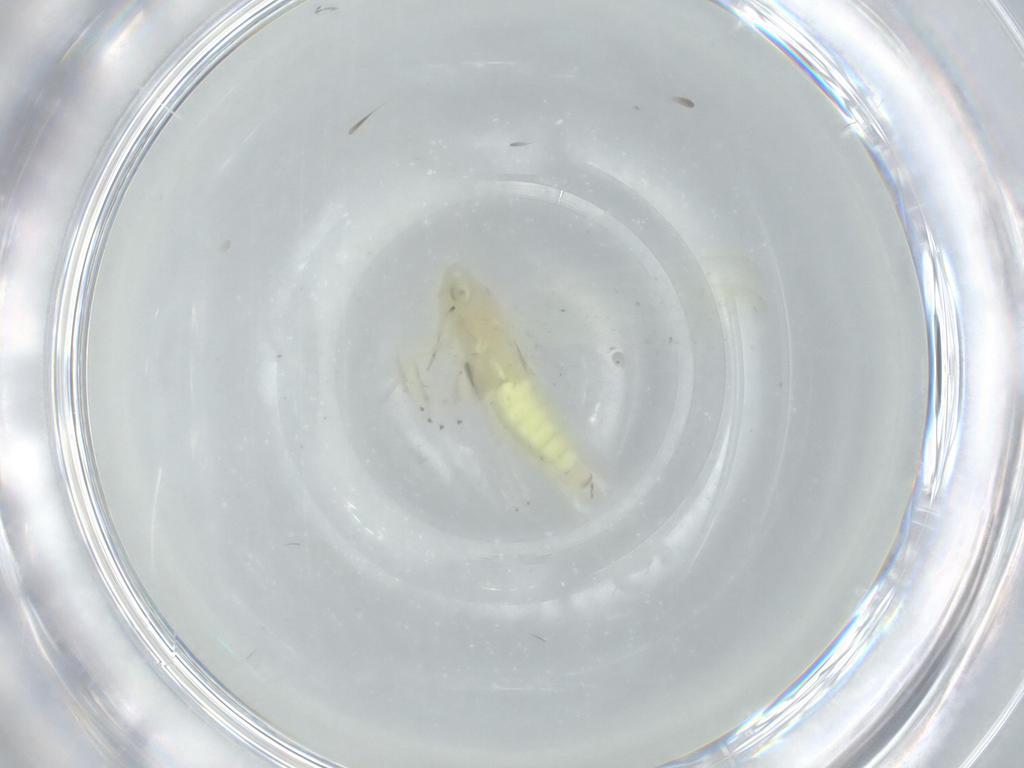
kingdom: Animalia
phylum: Arthropoda
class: Insecta
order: Hemiptera
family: Cicadellidae
